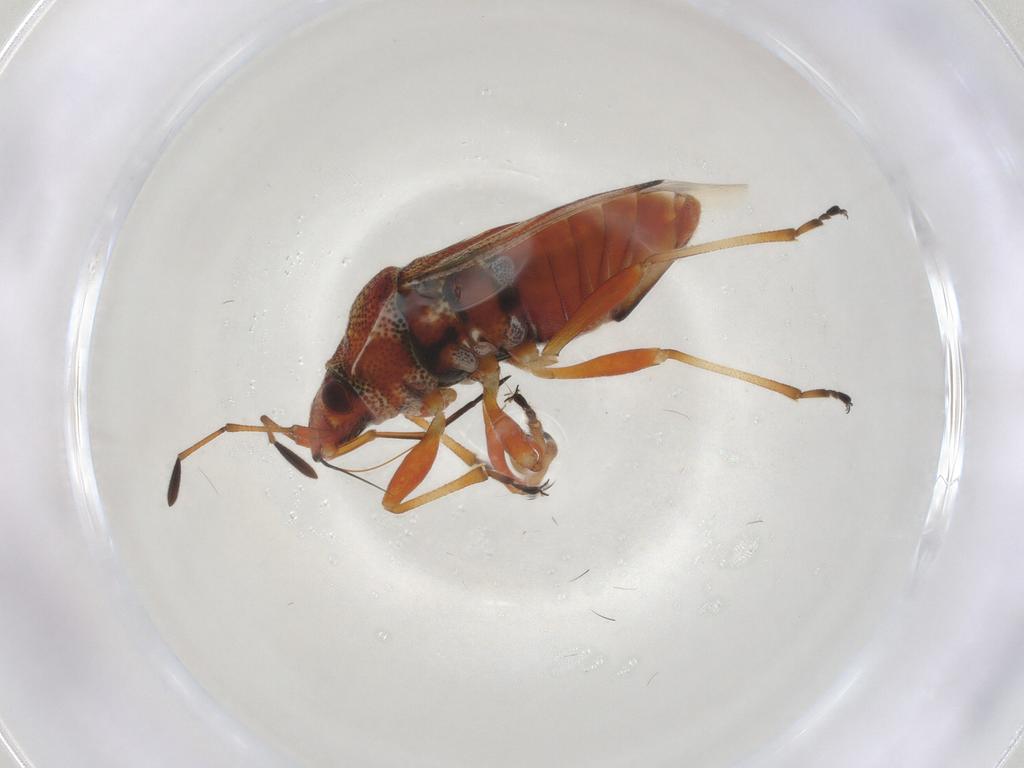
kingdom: Animalia
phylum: Arthropoda
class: Insecta
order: Hemiptera
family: Lygaeidae
